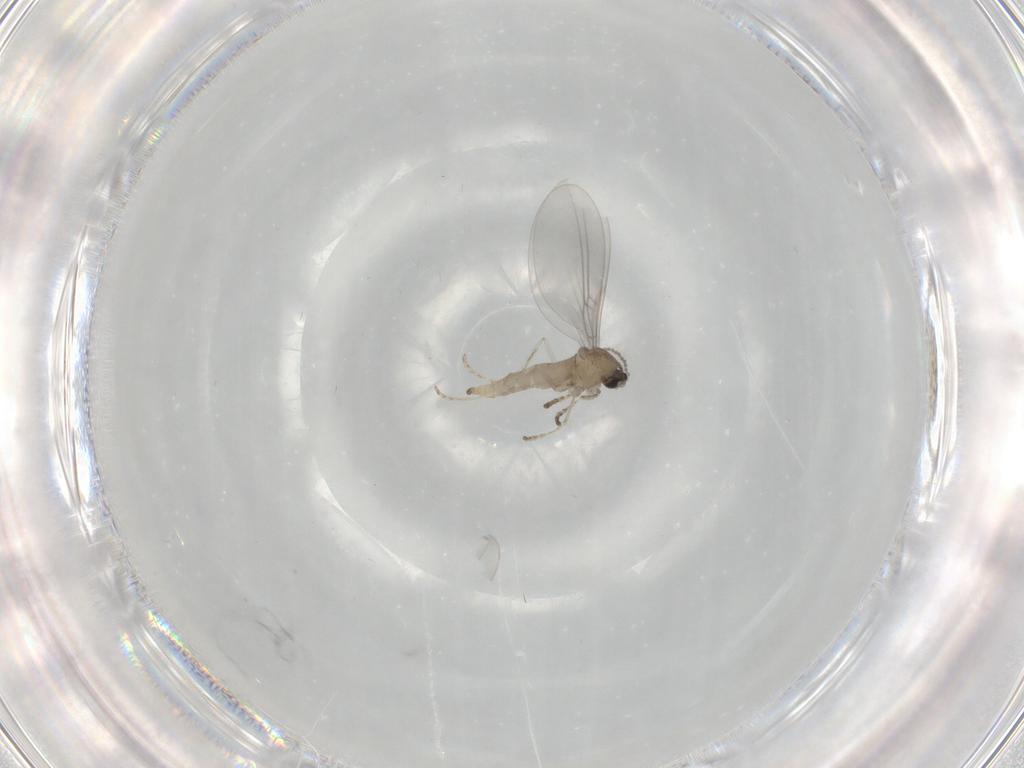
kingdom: Animalia
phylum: Arthropoda
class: Insecta
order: Diptera
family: Cecidomyiidae
